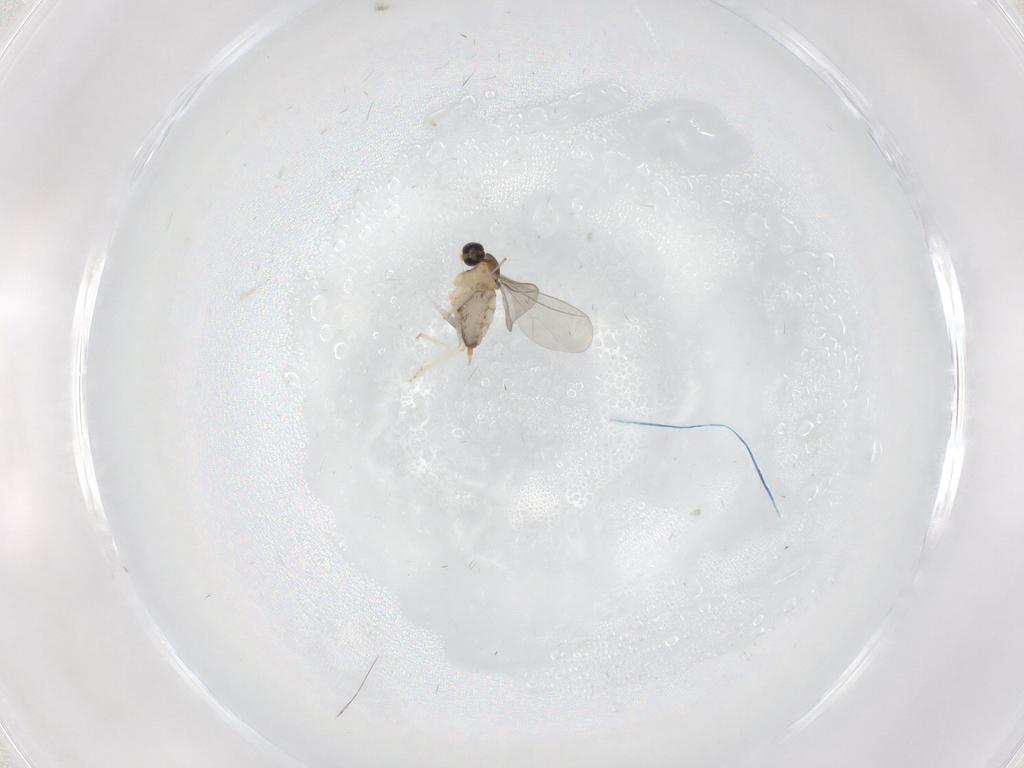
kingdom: Animalia
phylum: Arthropoda
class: Insecta
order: Diptera
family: Cecidomyiidae
